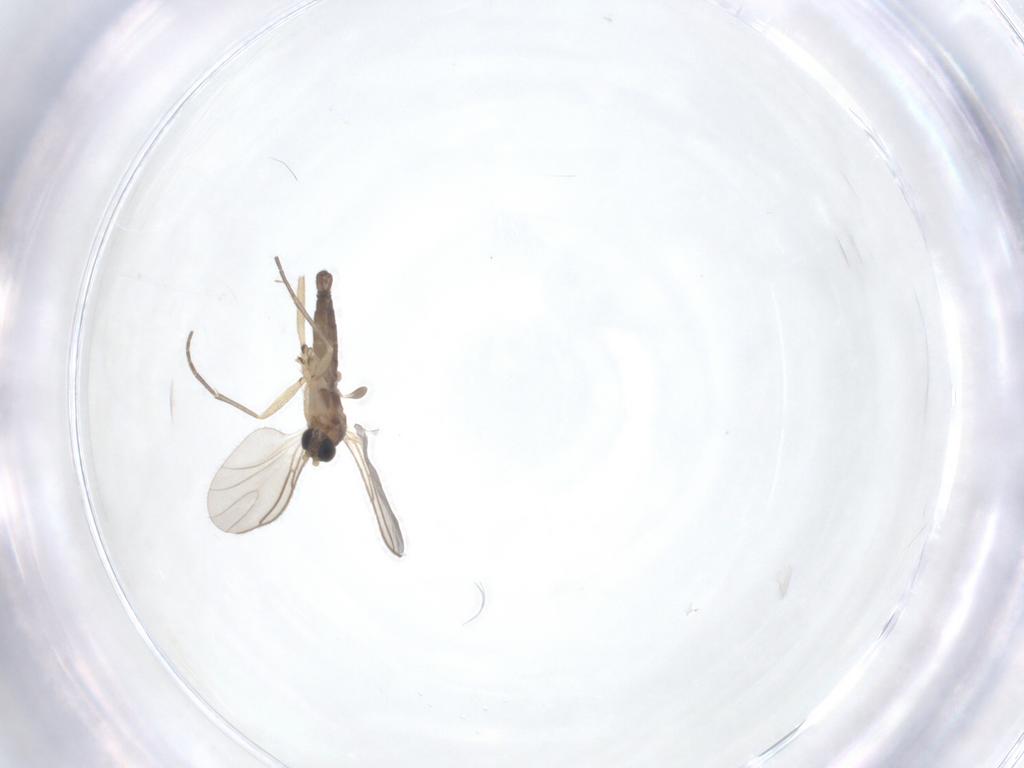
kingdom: Animalia
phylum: Arthropoda
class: Insecta
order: Diptera
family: Sciaridae
